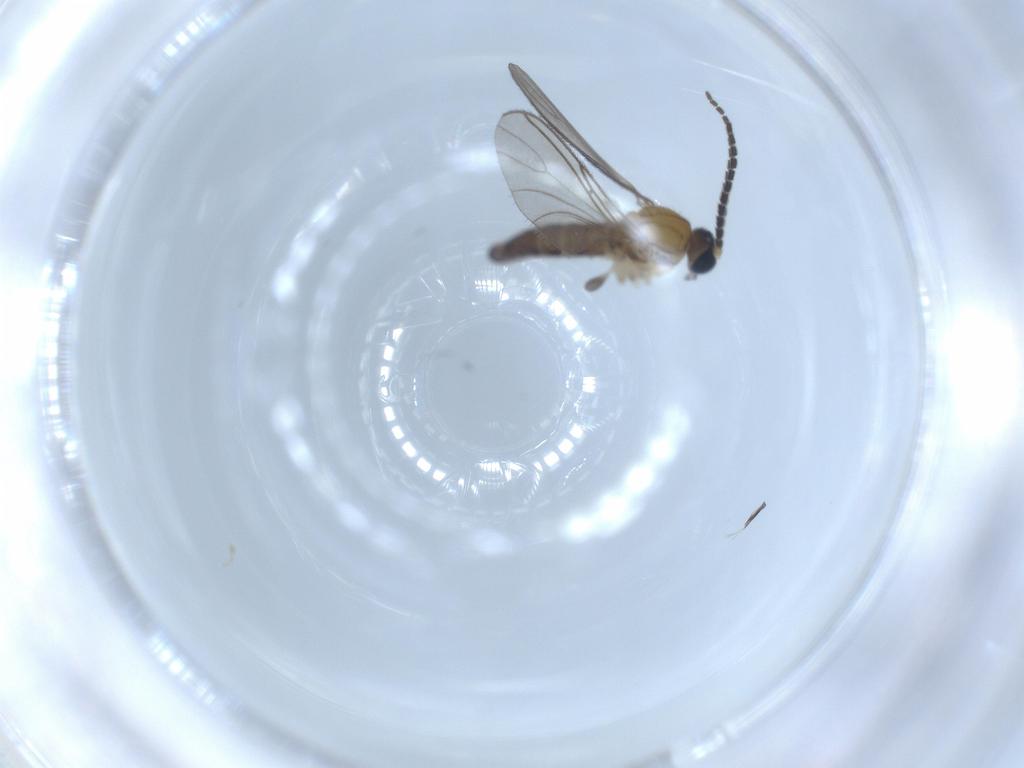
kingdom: Animalia
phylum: Arthropoda
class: Insecta
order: Diptera
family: Sciaridae
